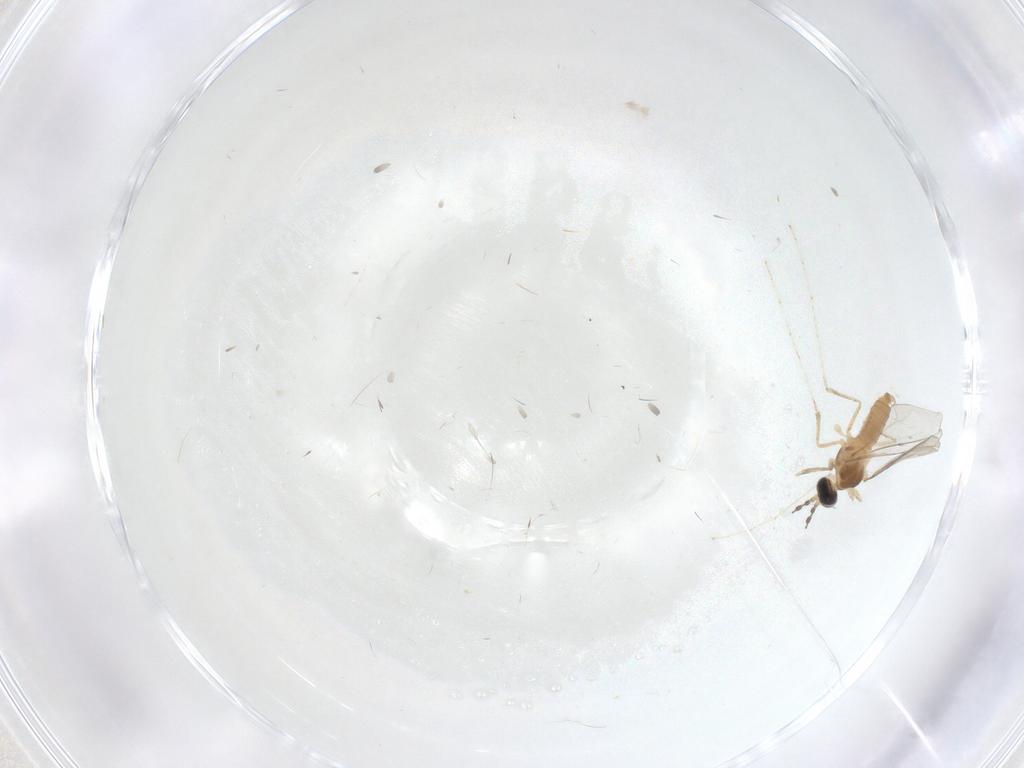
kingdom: Animalia
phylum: Arthropoda
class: Insecta
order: Diptera
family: Cecidomyiidae
